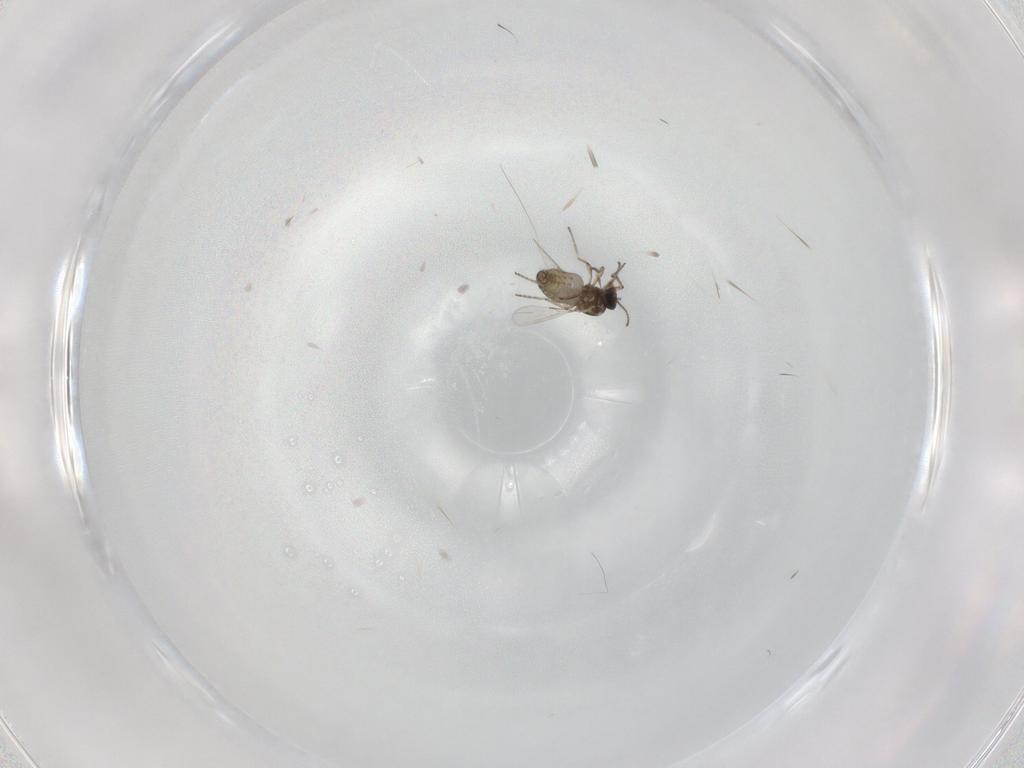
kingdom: Animalia
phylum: Arthropoda
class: Insecta
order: Diptera
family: Ceratopogonidae
